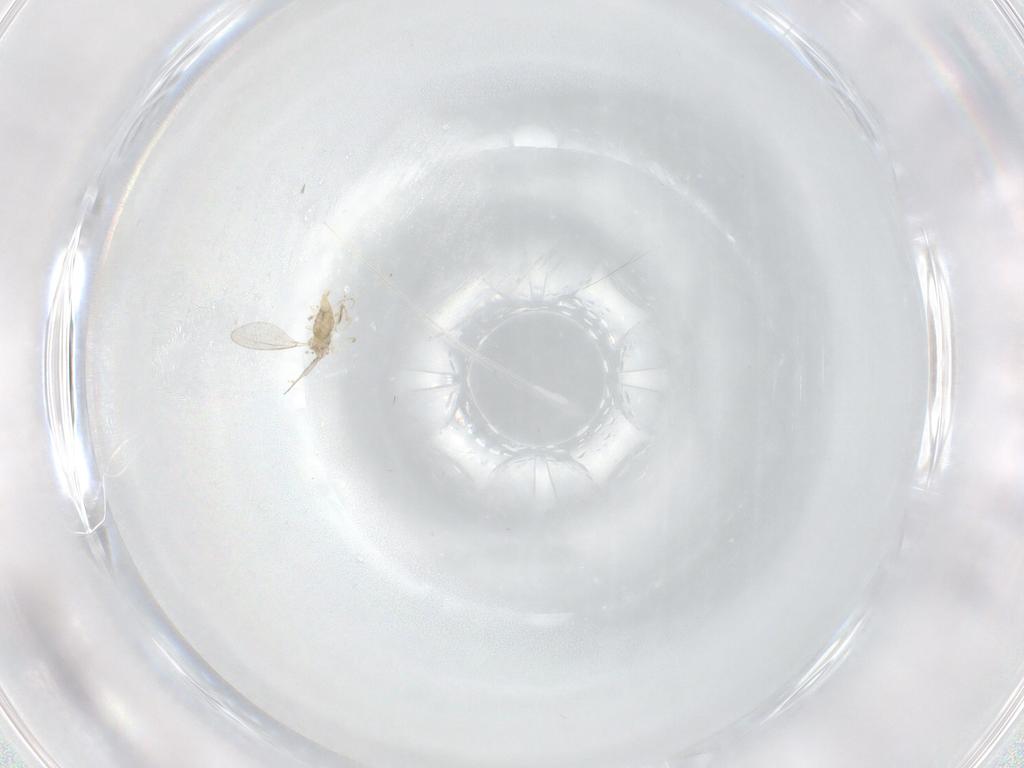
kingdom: Animalia
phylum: Arthropoda
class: Insecta
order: Diptera
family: Cecidomyiidae
